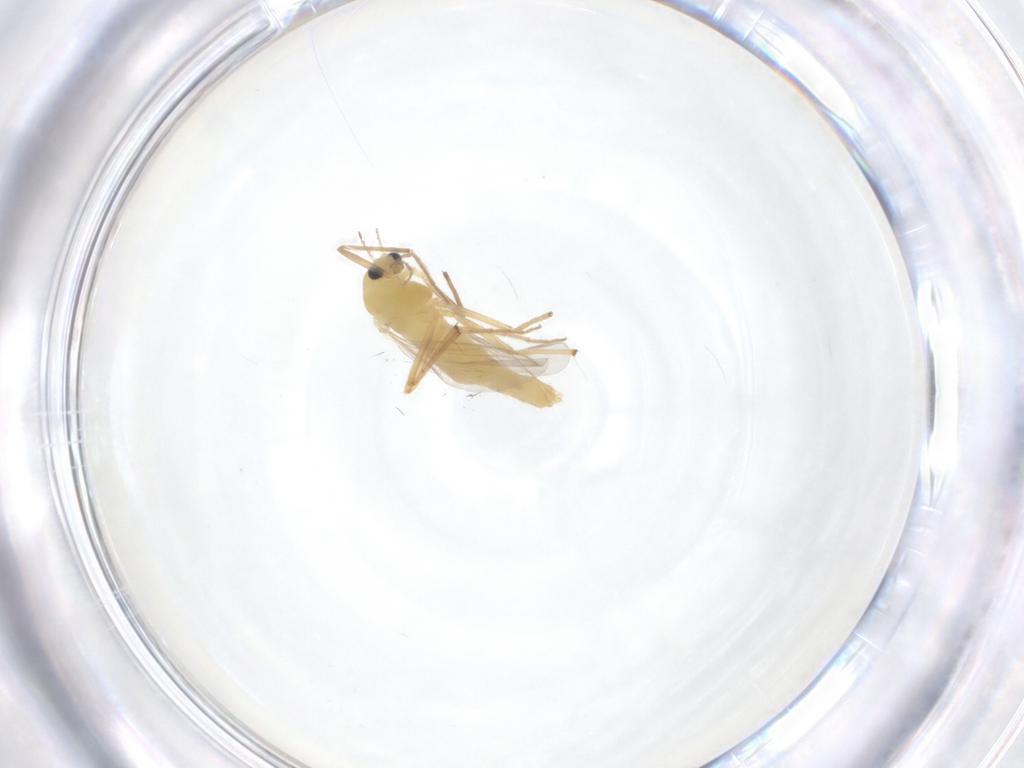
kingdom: Animalia
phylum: Arthropoda
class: Insecta
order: Diptera
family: Chironomidae
